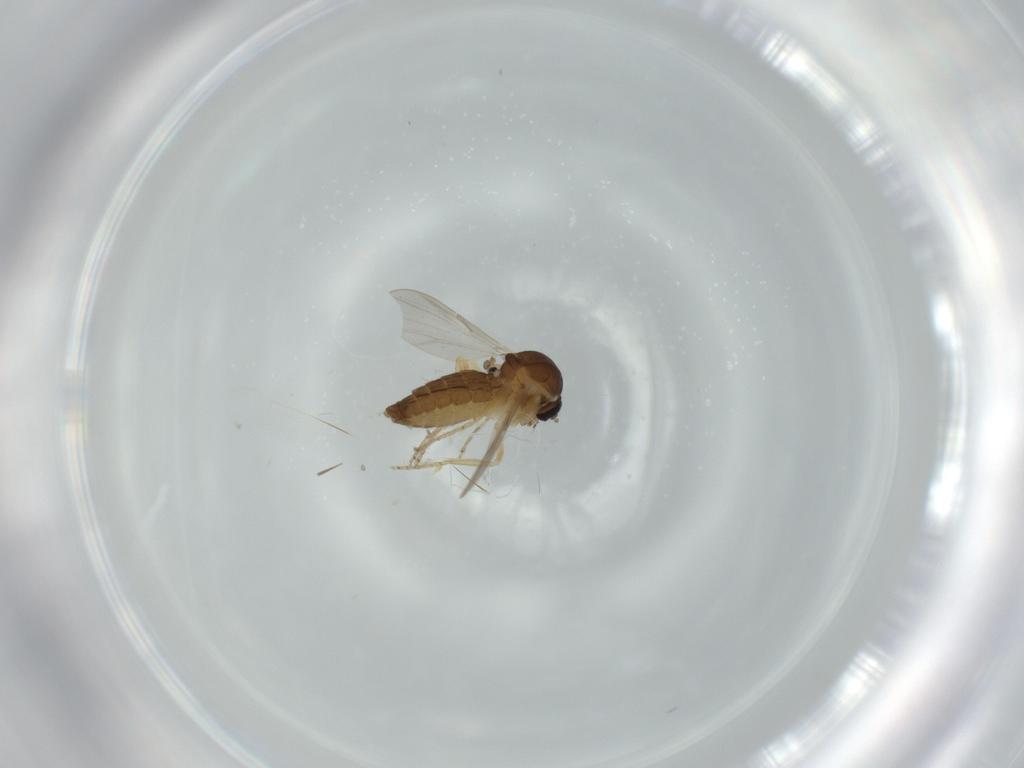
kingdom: Animalia
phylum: Arthropoda
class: Insecta
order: Diptera
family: Ceratopogonidae
